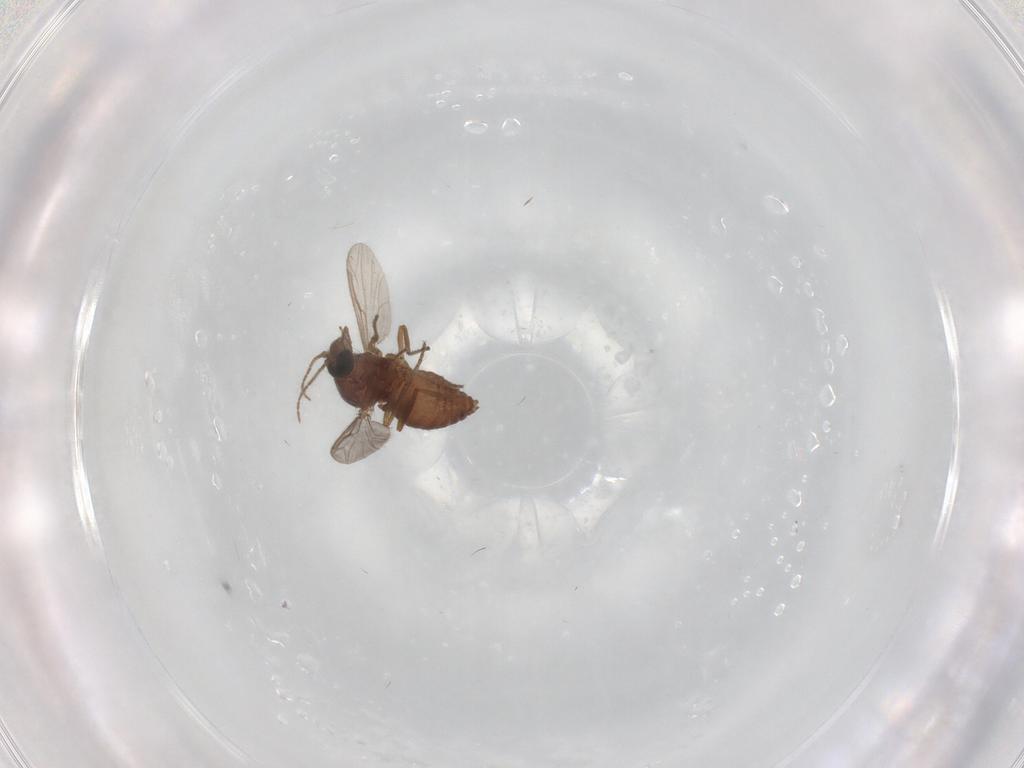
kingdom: Animalia
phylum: Arthropoda
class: Insecta
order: Diptera
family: Ceratopogonidae
